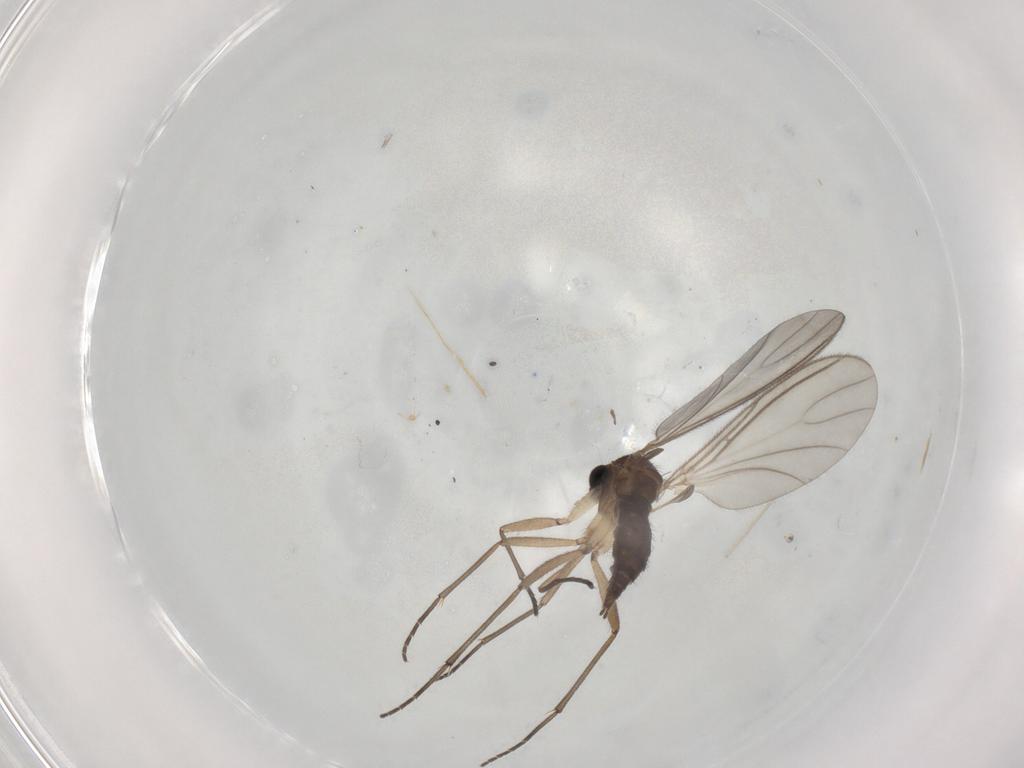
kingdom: Animalia
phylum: Arthropoda
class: Insecta
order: Diptera
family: Sciaridae
